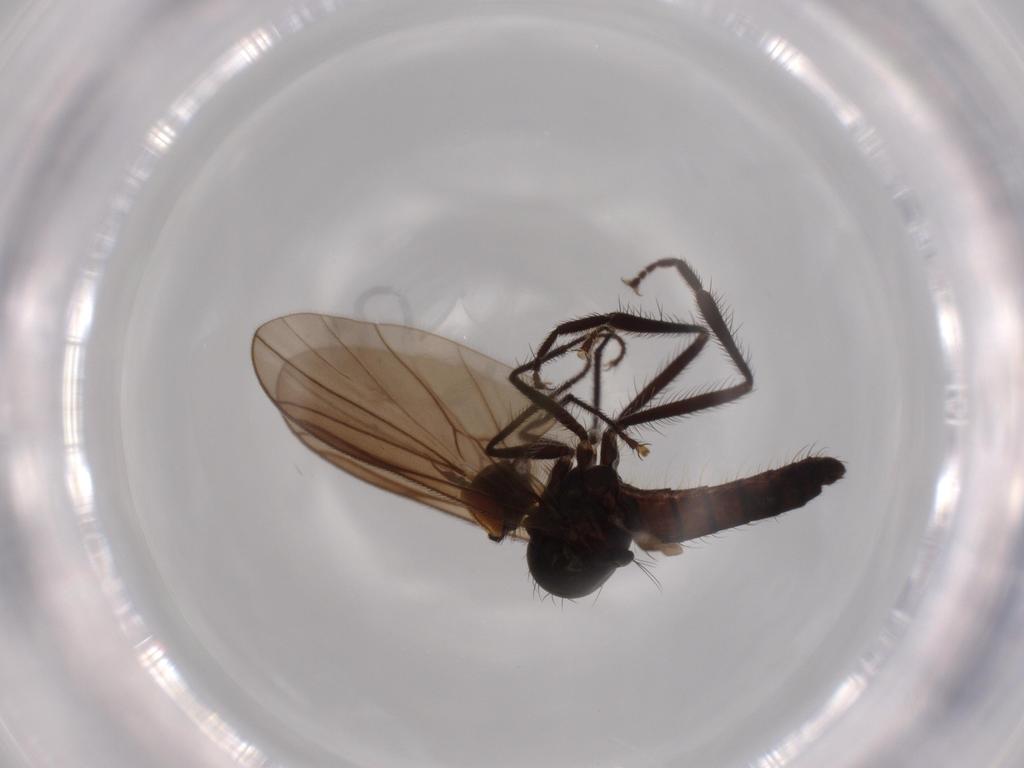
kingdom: Animalia
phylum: Arthropoda
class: Insecta
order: Diptera
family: Hybotidae
